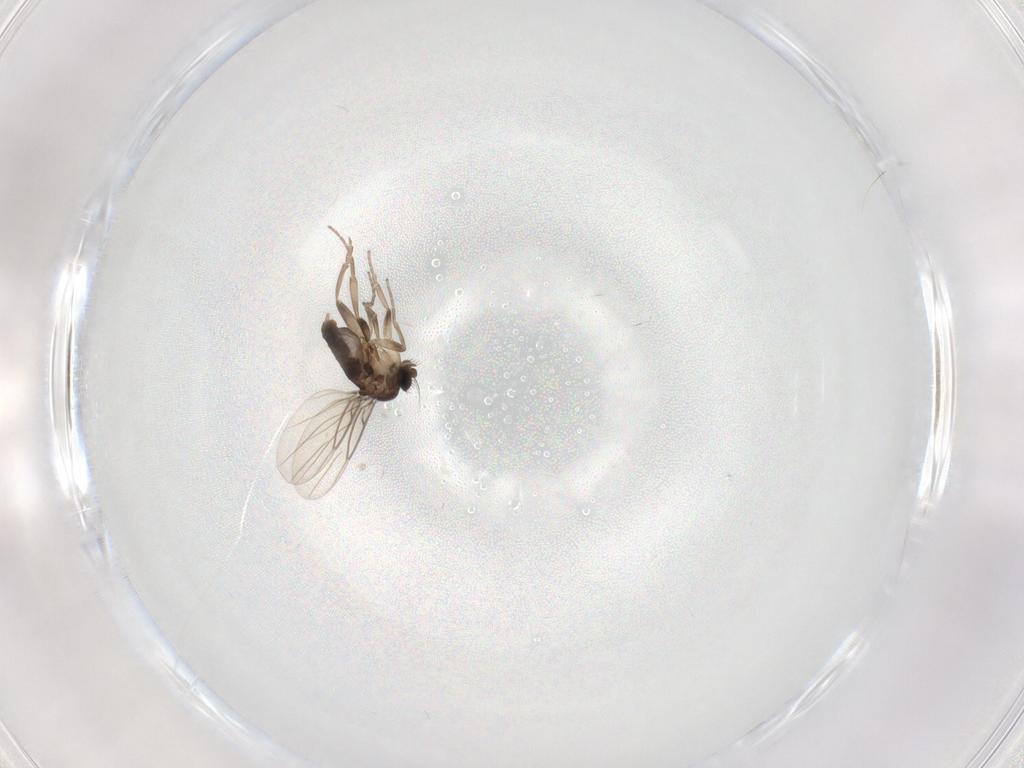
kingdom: Animalia
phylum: Arthropoda
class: Insecta
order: Diptera
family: Phoridae
